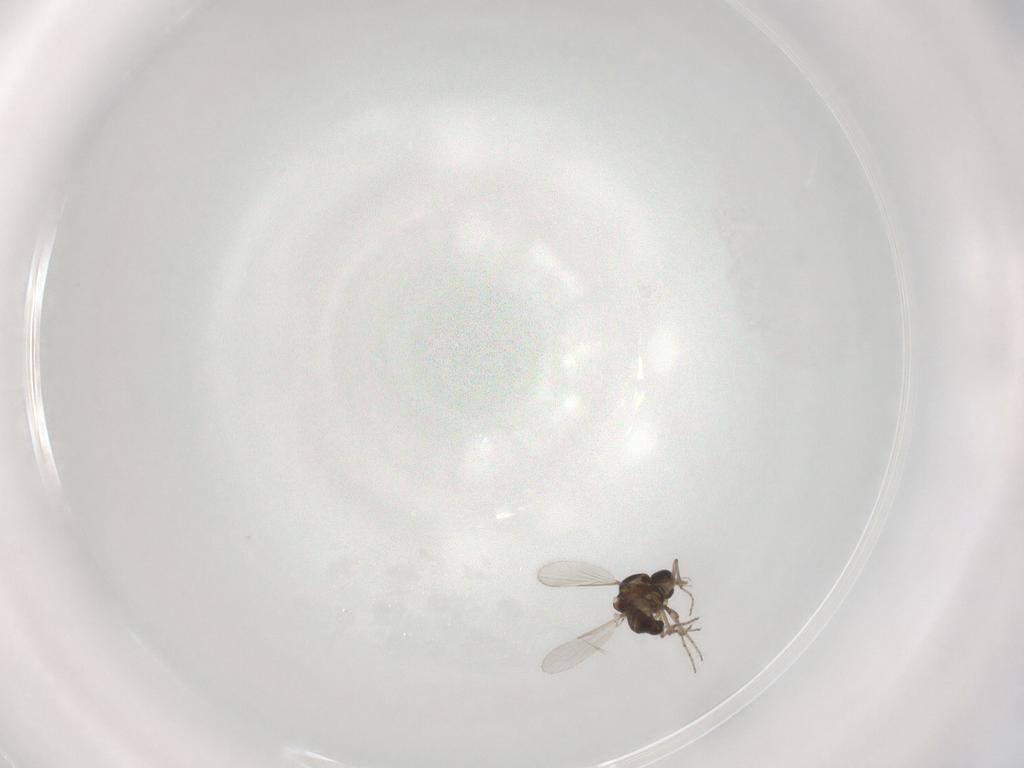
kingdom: Animalia
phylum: Arthropoda
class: Insecta
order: Diptera
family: Ceratopogonidae
